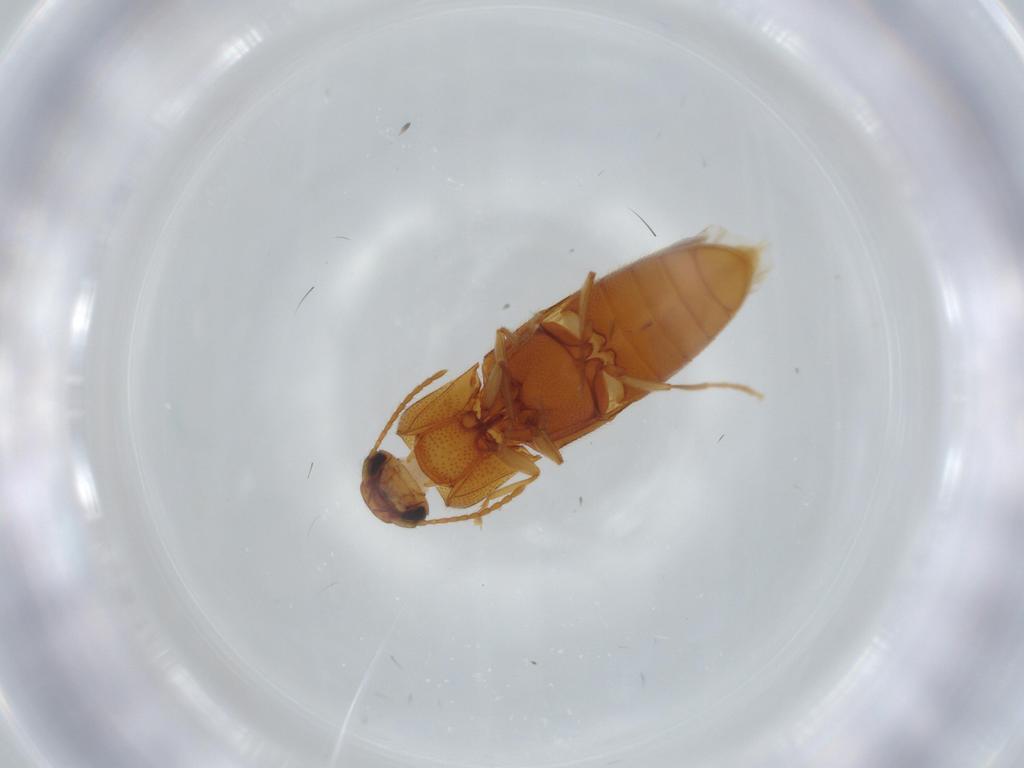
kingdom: Animalia
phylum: Arthropoda
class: Insecta
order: Coleoptera
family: Elateridae
